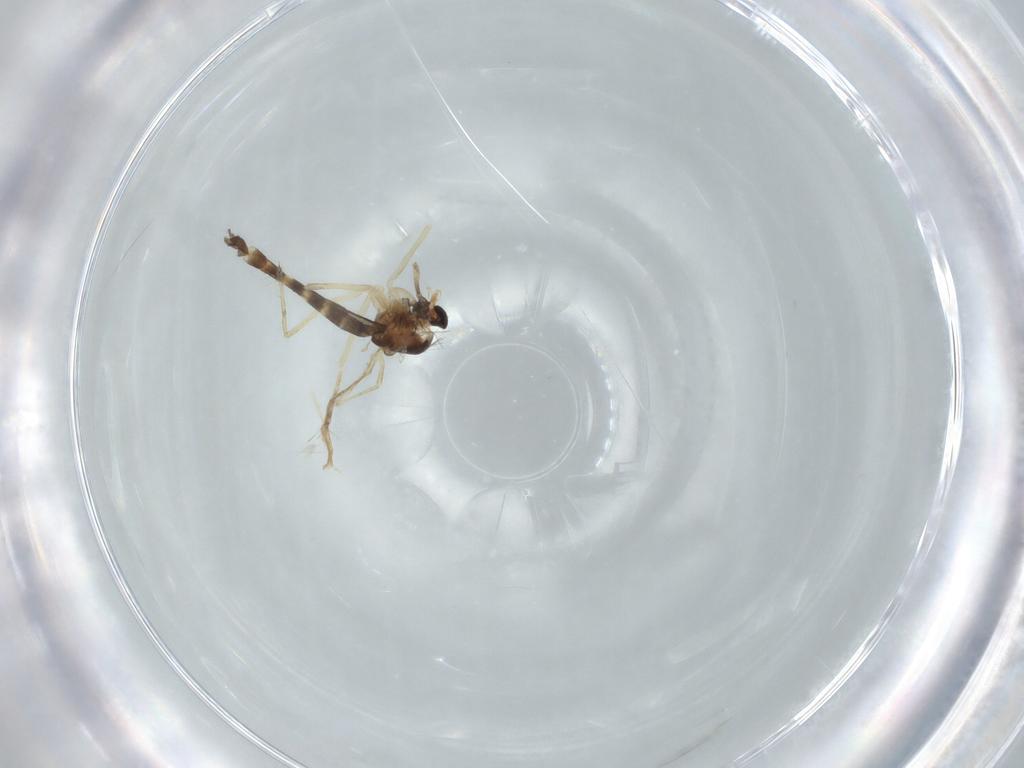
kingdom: Animalia
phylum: Arthropoda
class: Insecta
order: Diptera
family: Chironomidae
